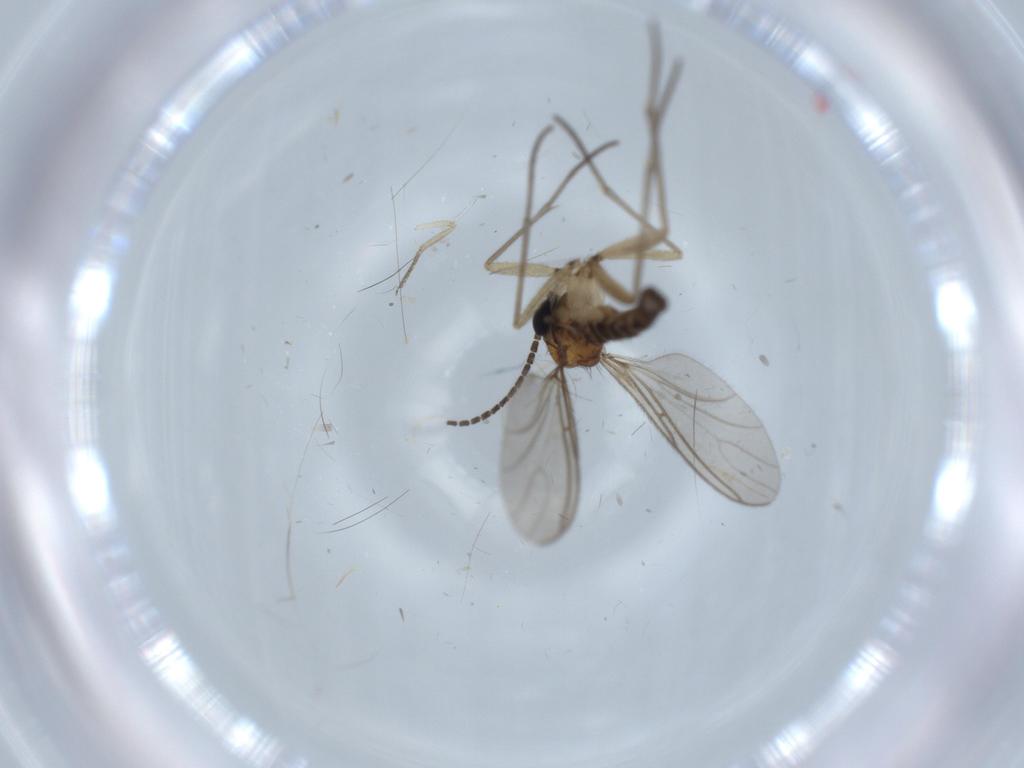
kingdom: Animalia
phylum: Arthropoda
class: Insecta
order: Diptera
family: Sciaridae
